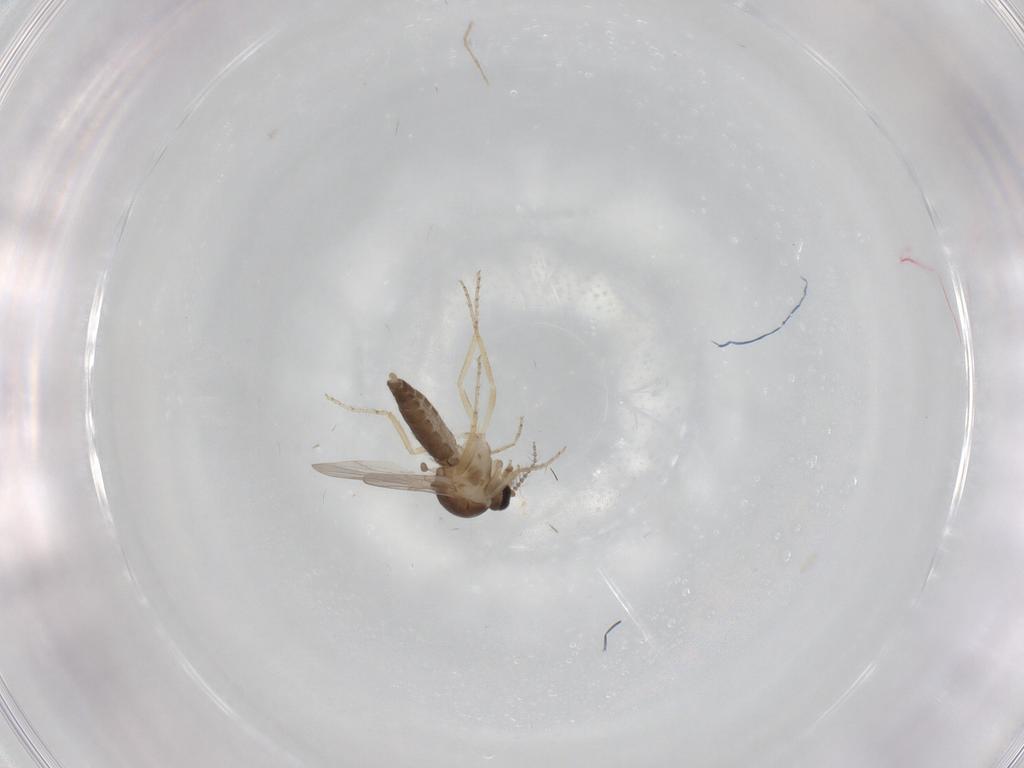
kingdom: Animalia
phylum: Arthropoda
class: Insecta
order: Diptera
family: Ceratopogonidae
